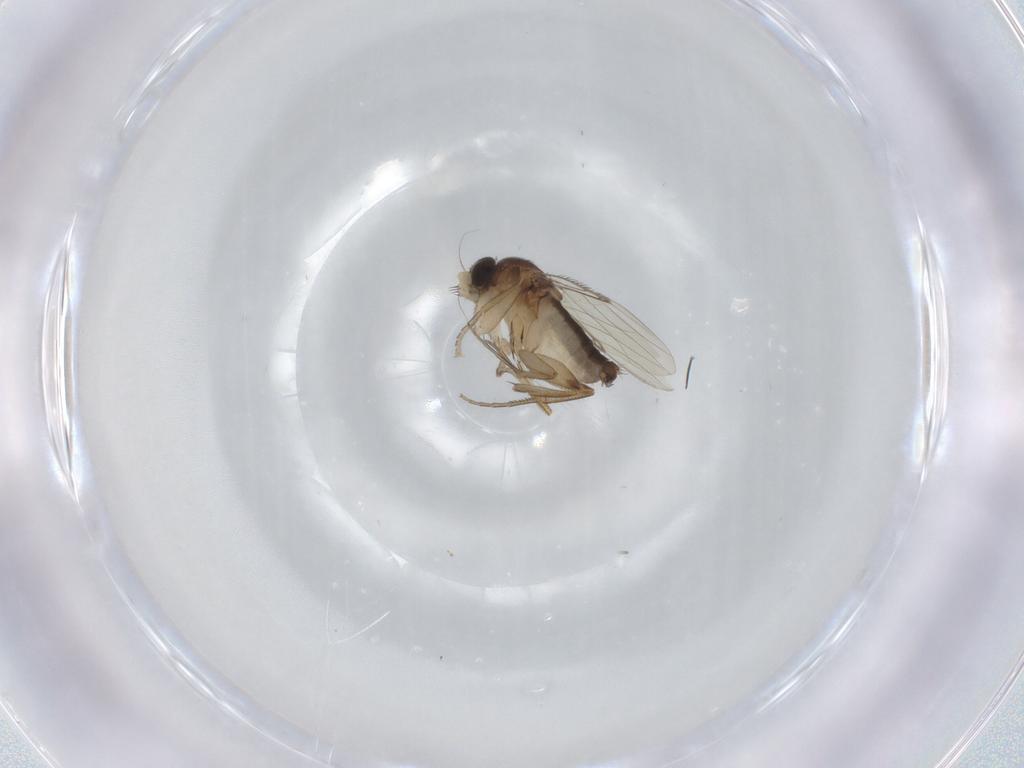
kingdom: Animalia
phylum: Arthropoda
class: Insecta
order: Diptera
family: Phoridae
